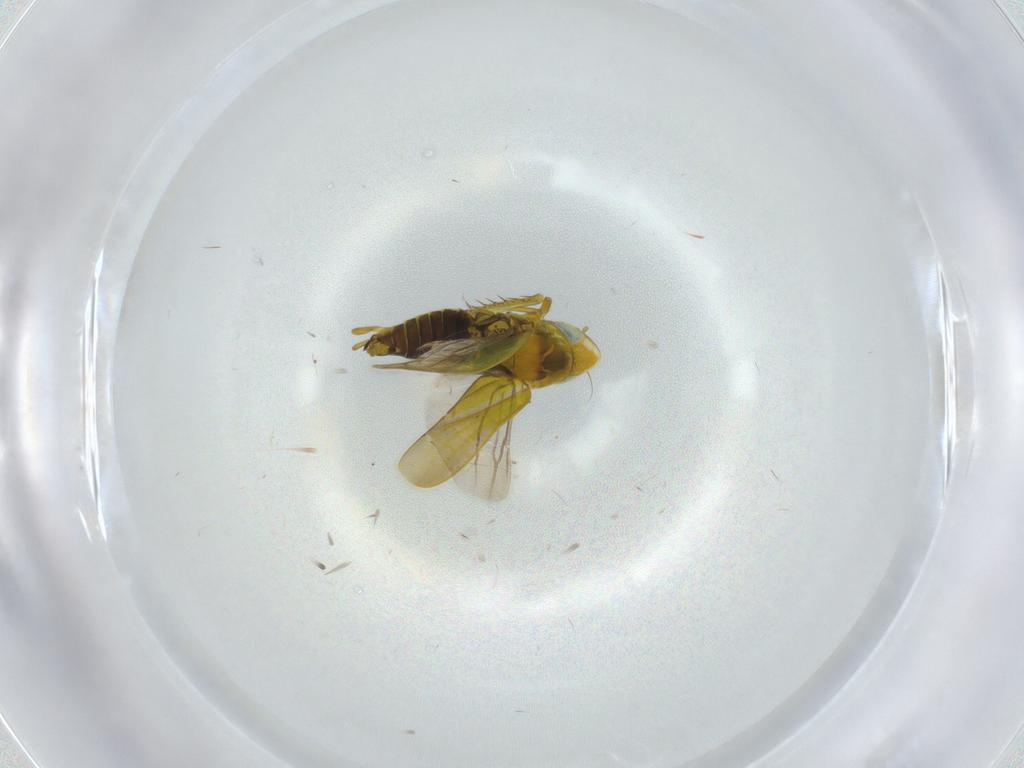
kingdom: Animalia
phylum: Arthropoda
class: Insecta
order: Hemiptera
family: Cicadellidae
